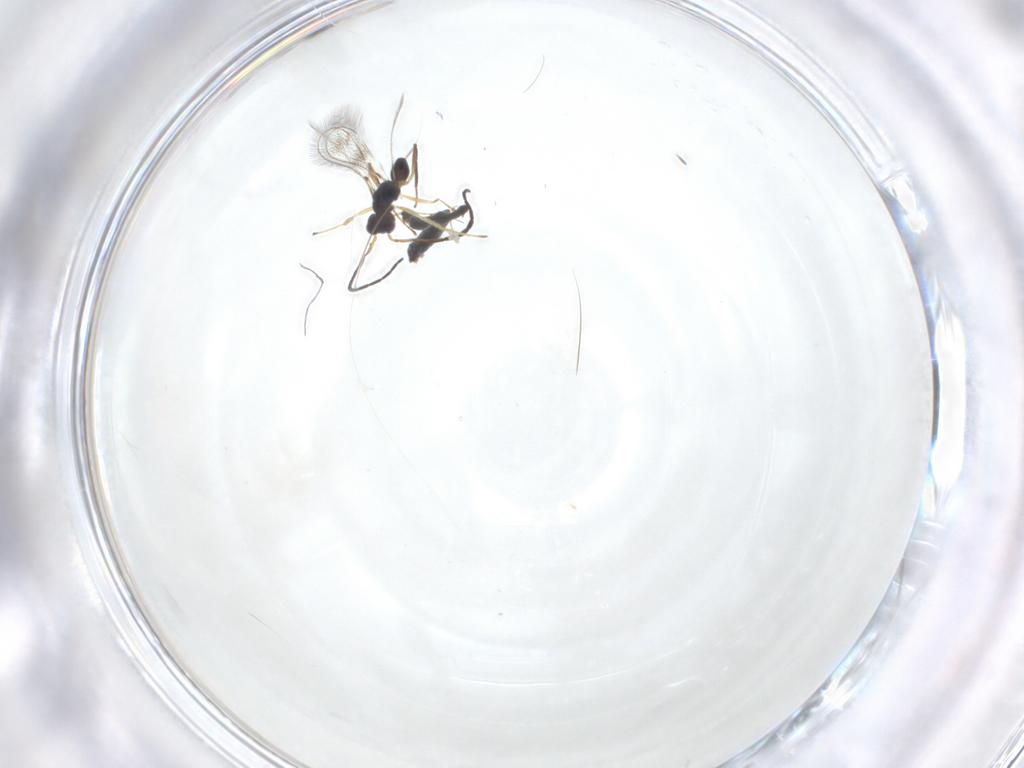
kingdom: Animalia
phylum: Arthropoda
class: Insecta
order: Hymenoptera
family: Mymaridae
